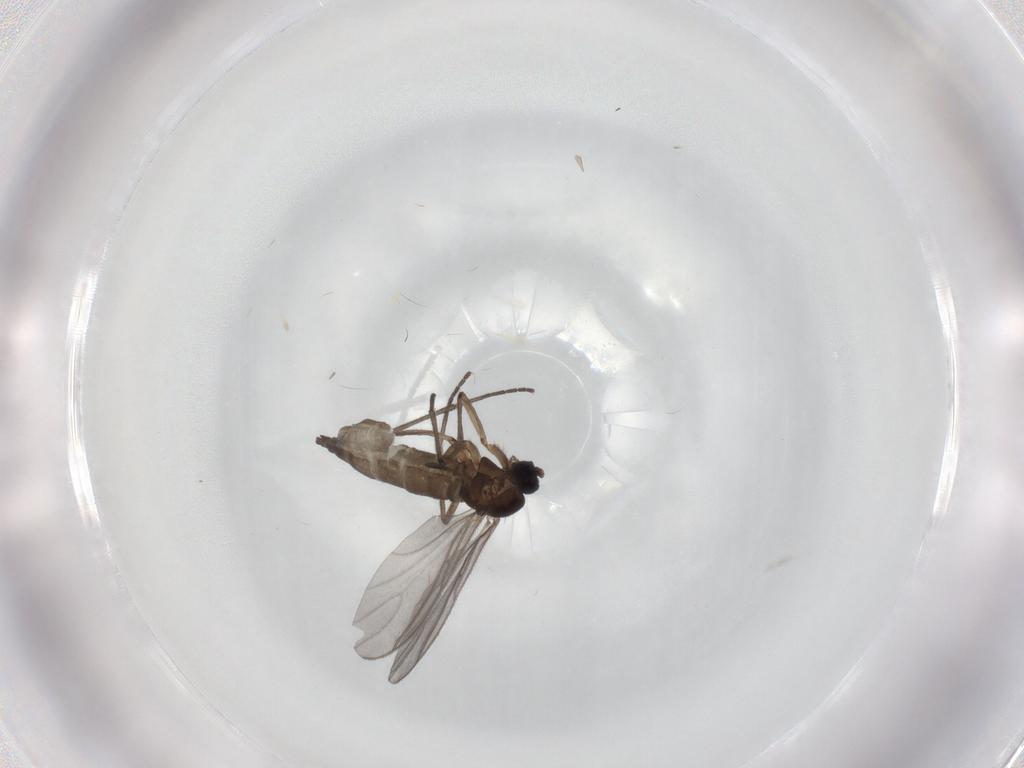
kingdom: Animalia
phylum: Arthropoda
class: Insecta
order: Diptera
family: Sciaridae
